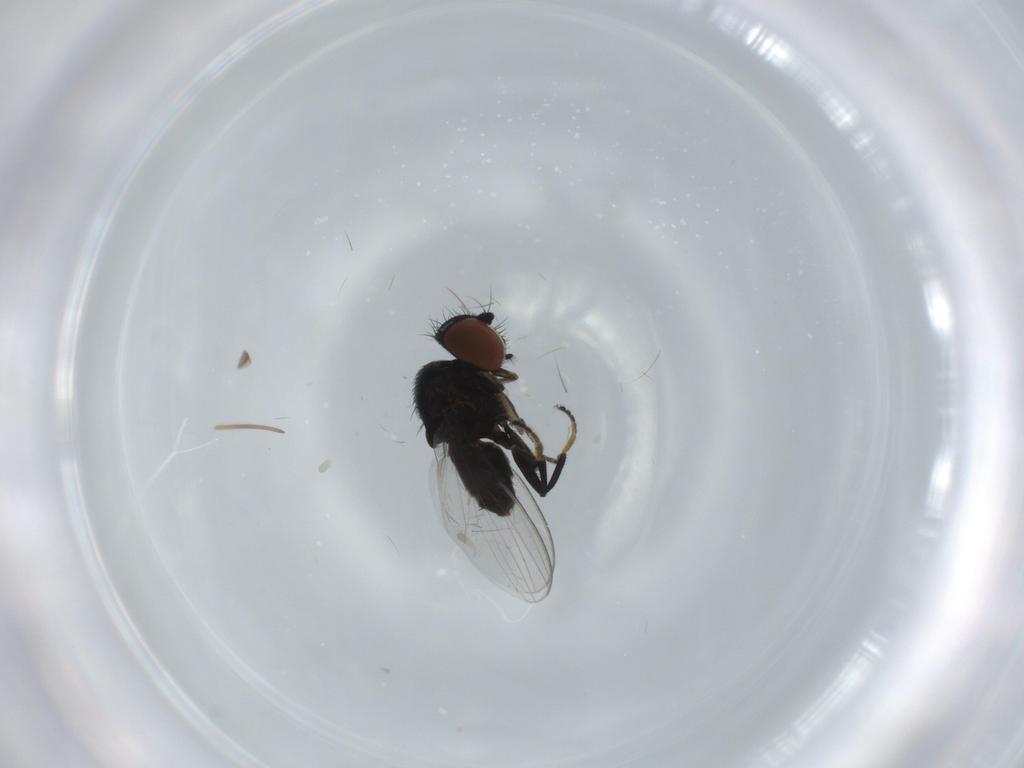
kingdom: Animalia
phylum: Arthropoda
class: Insecta
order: Diptera
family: Milichiidae
